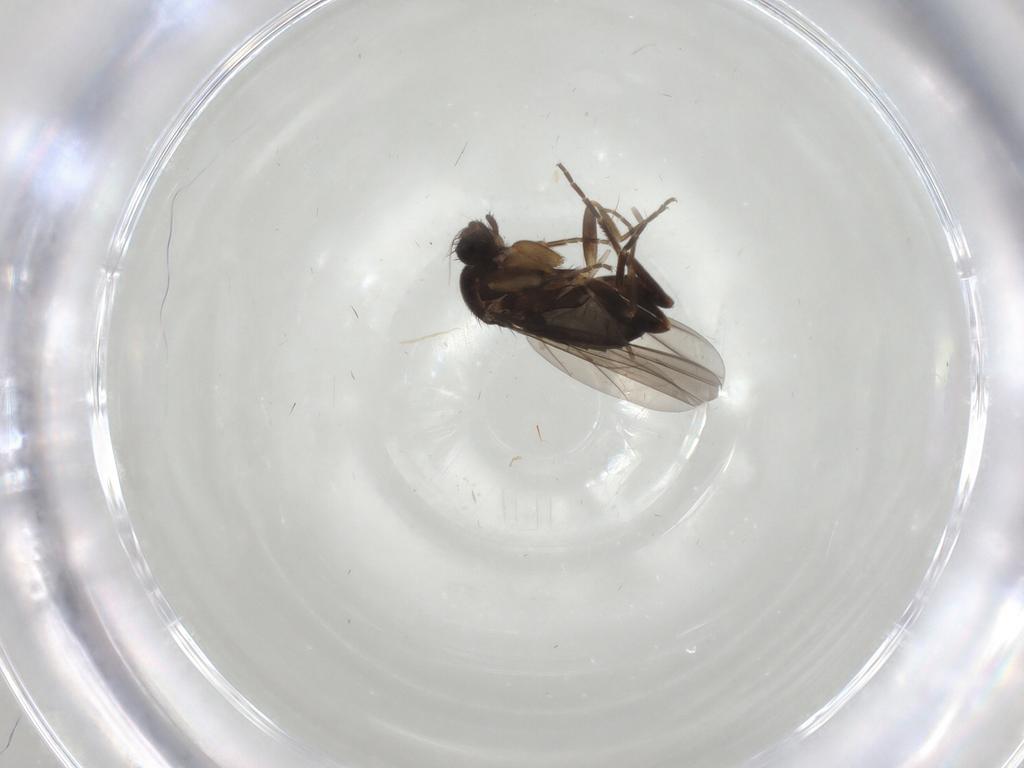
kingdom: Animalia
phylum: Arthropoda
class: Insecta
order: Diptera
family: Phoridae
